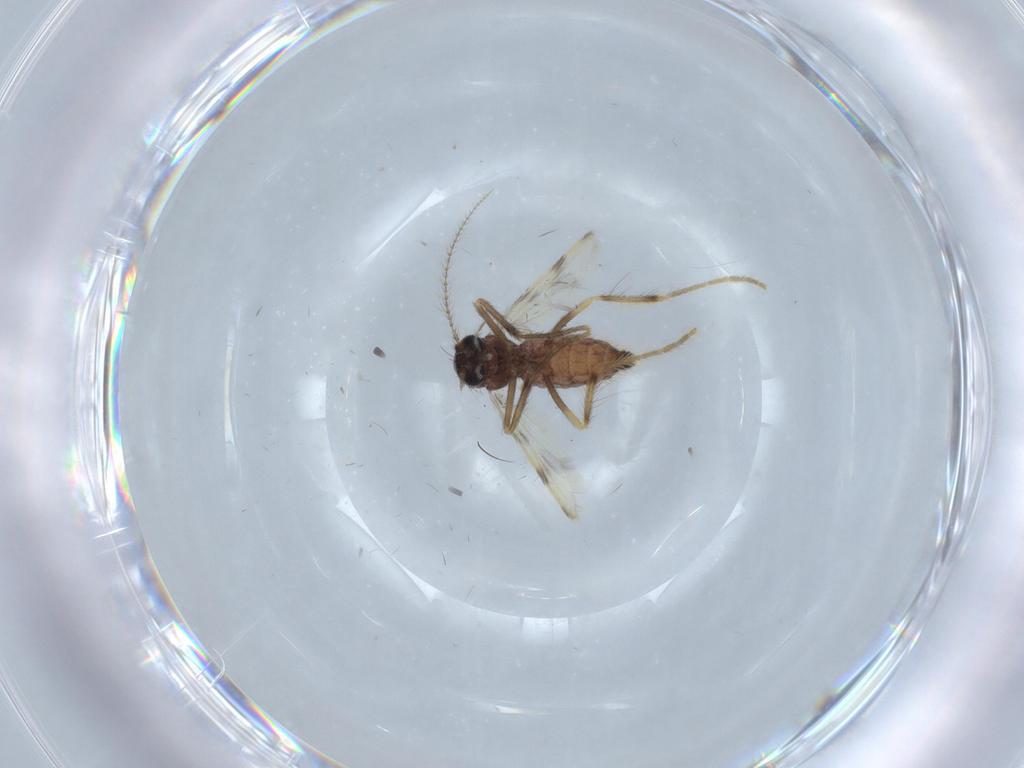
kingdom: Animalia
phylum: Arthropoda
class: Insecta
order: Diptera
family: Corethrellidae
